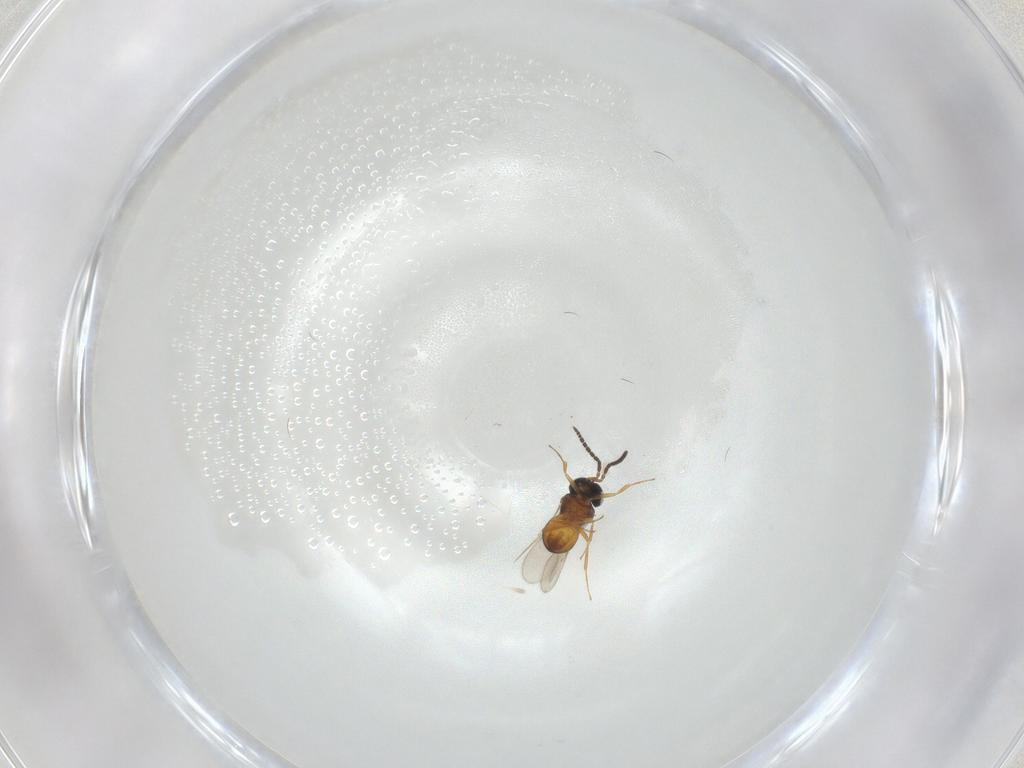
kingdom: Animalia
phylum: Arthropoda
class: Insecta
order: Hymenoptera
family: Scelionidae
